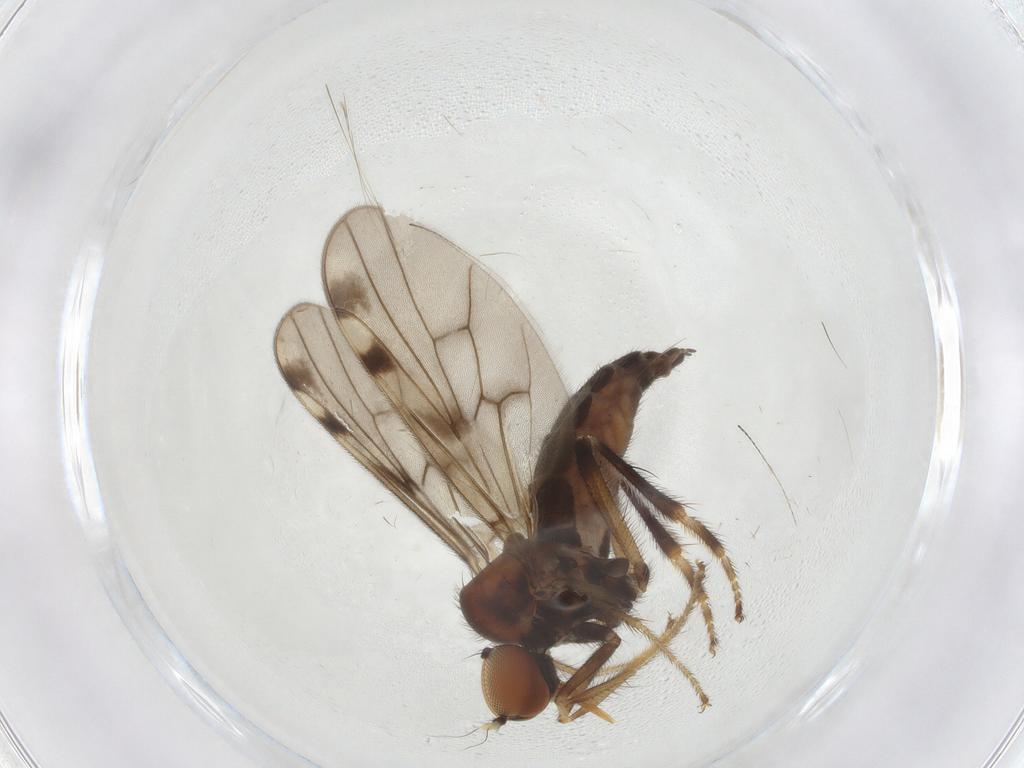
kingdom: Animalia
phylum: Arthropoda
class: Insecta
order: Diptera
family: Hybotidae
